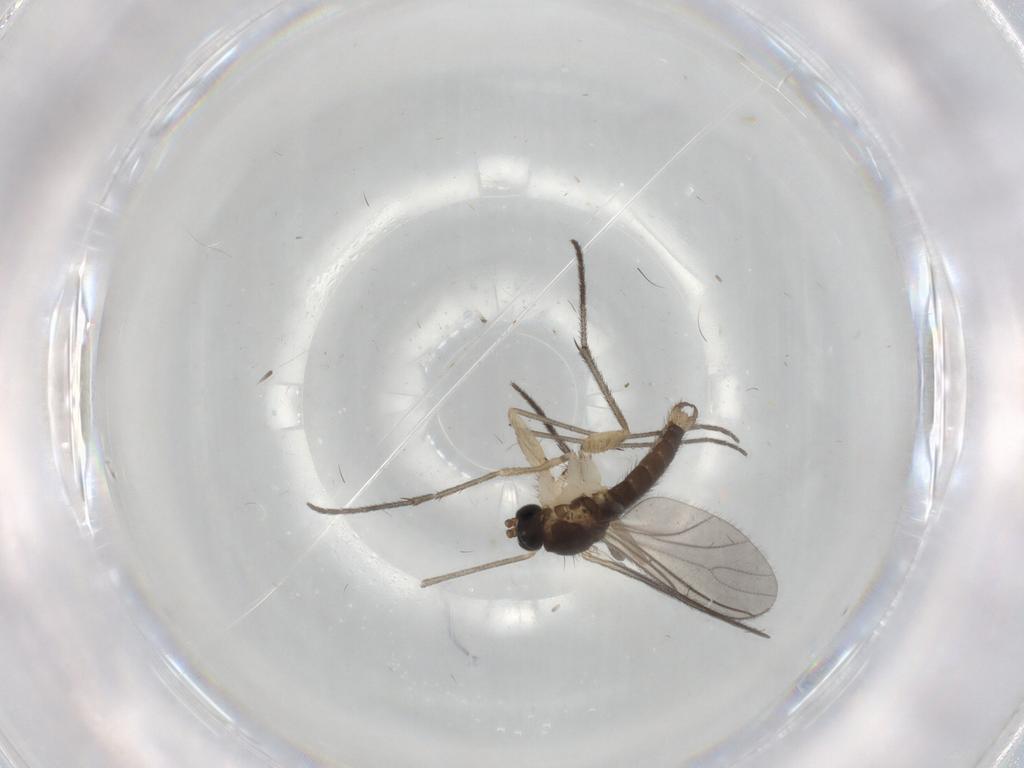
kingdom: Animalia
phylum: Arthropoda
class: Insecta
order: Diptera
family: Sciaridae
